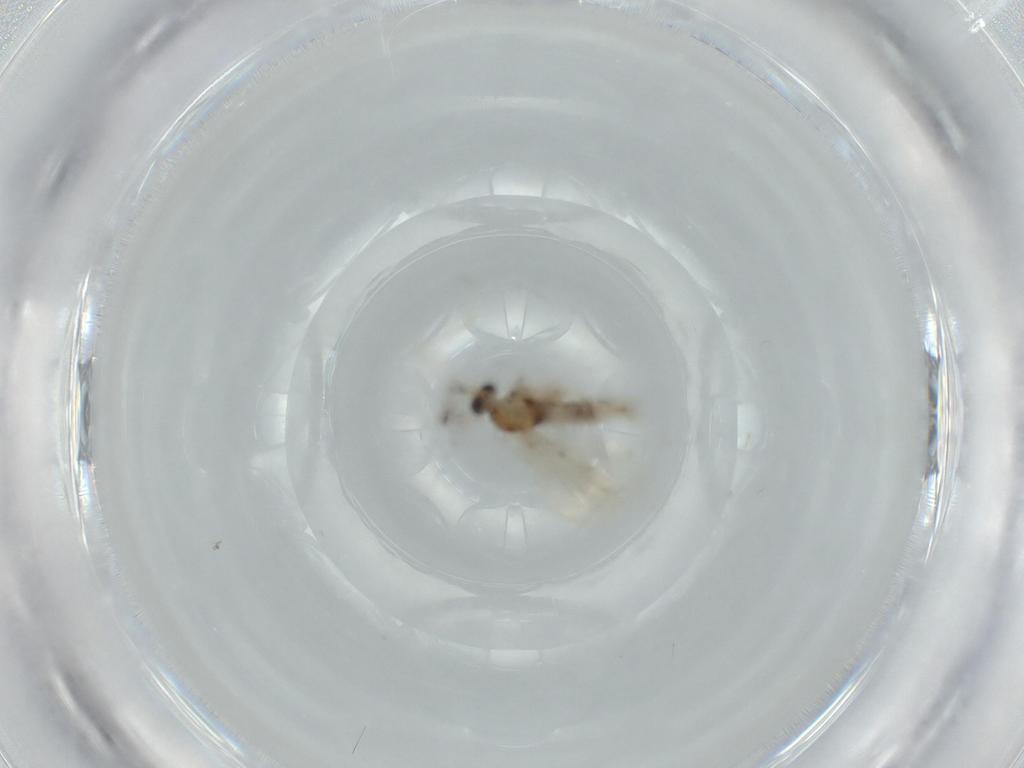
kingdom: Animalia
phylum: Arthropoda
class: Insecta
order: Diptera
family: Cecidomyiidae
